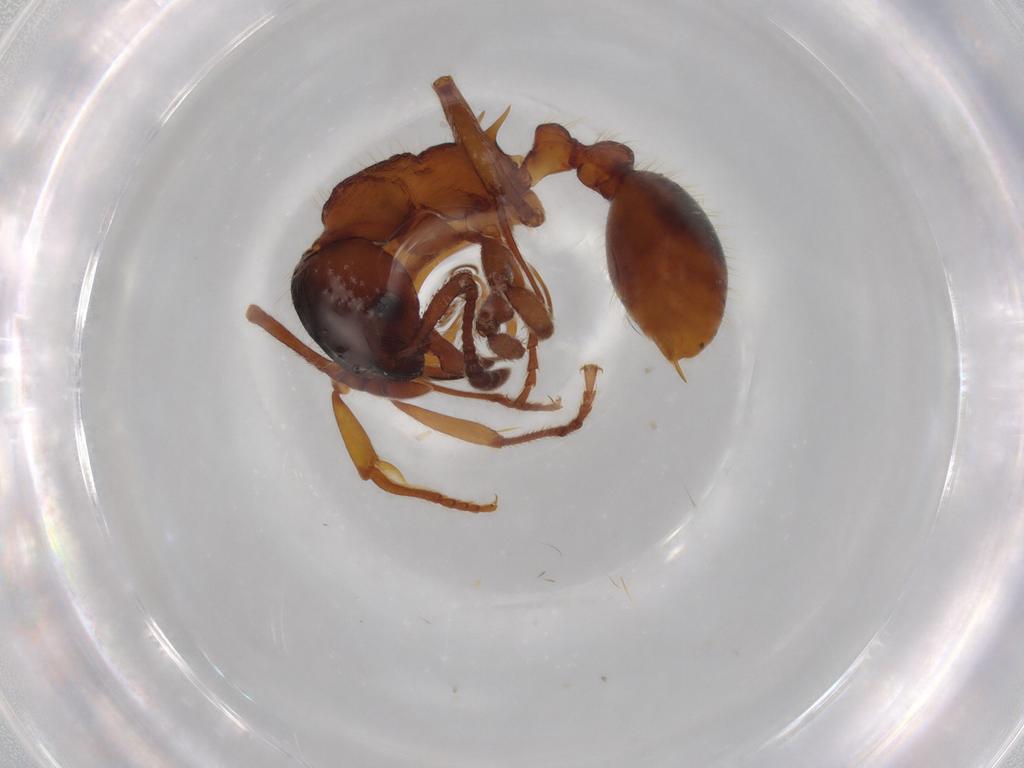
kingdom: Animalia
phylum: Arthropoda
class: Insecta
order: Hymenoptera
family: Formicidae
